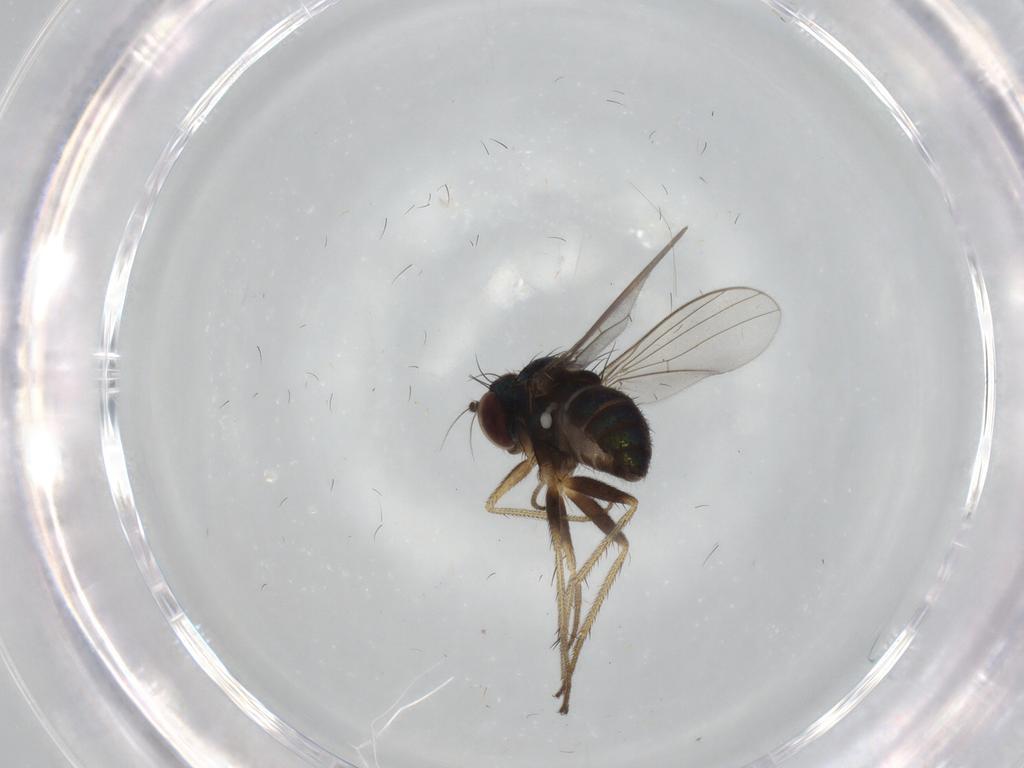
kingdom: Animalia
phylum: Arthropoda
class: Insecta
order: Diptera
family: Dolichopodidae
